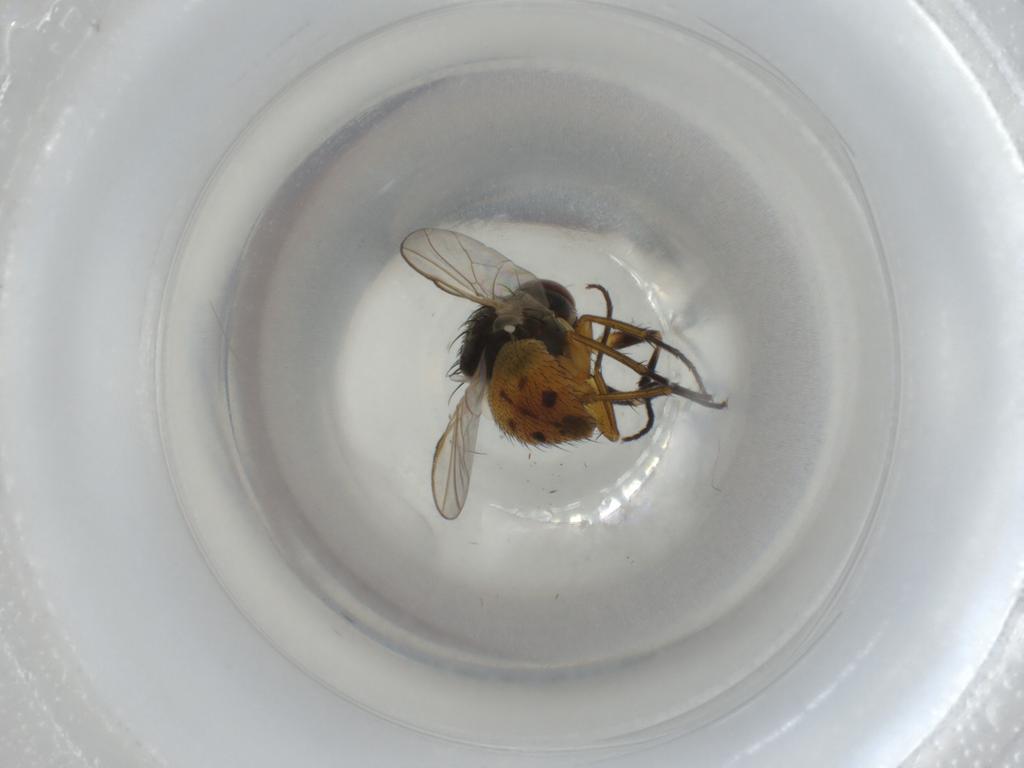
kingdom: Animalia
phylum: Arthropoda
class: Insecta
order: Diptera
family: Muscidae
